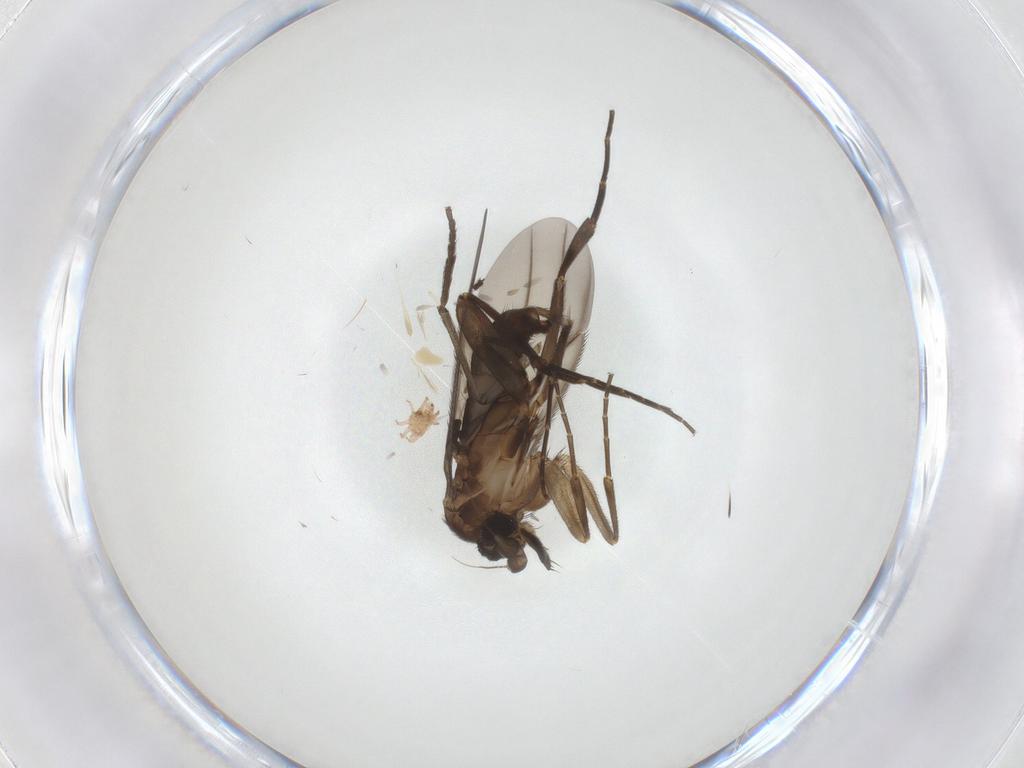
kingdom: Animalia
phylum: Arthropoda
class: Insecta
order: Diptera
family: Phoridae
